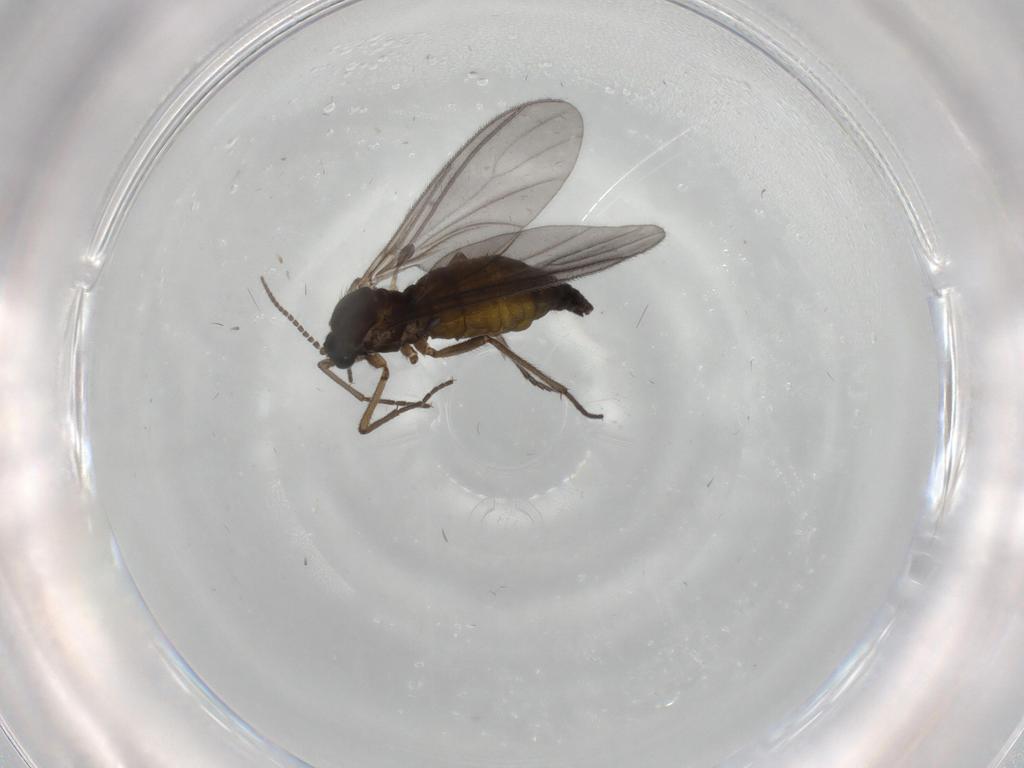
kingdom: Animalia
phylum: Arthropoda
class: Insecta
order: Diptera
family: Sciaridae
